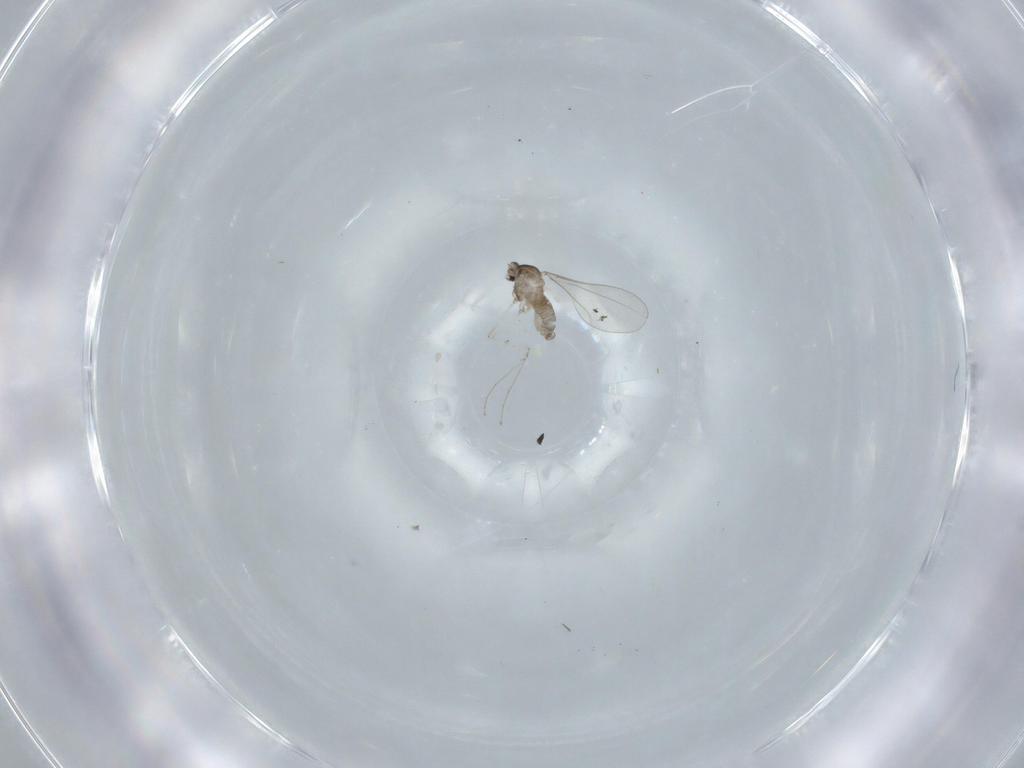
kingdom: Animalia
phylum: Arthropoda
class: Insecta
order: Diptera
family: Cecidomyiidae
